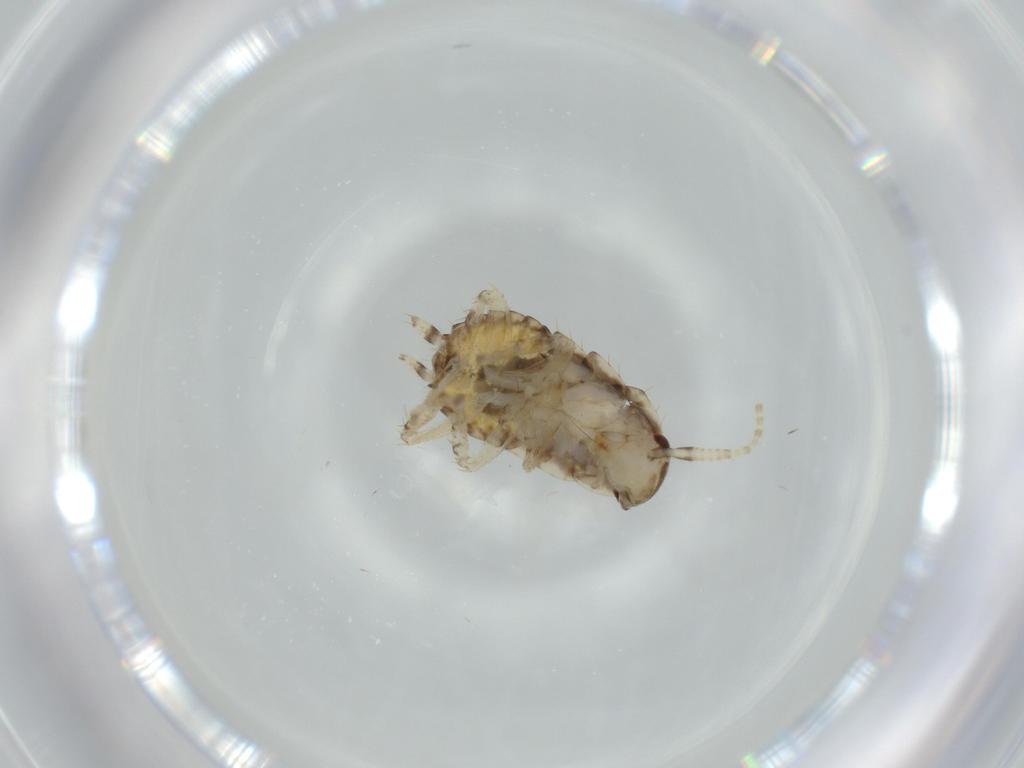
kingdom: Animalia
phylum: Arthropoda
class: Insecta
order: Blattodea
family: Ectobiidae
